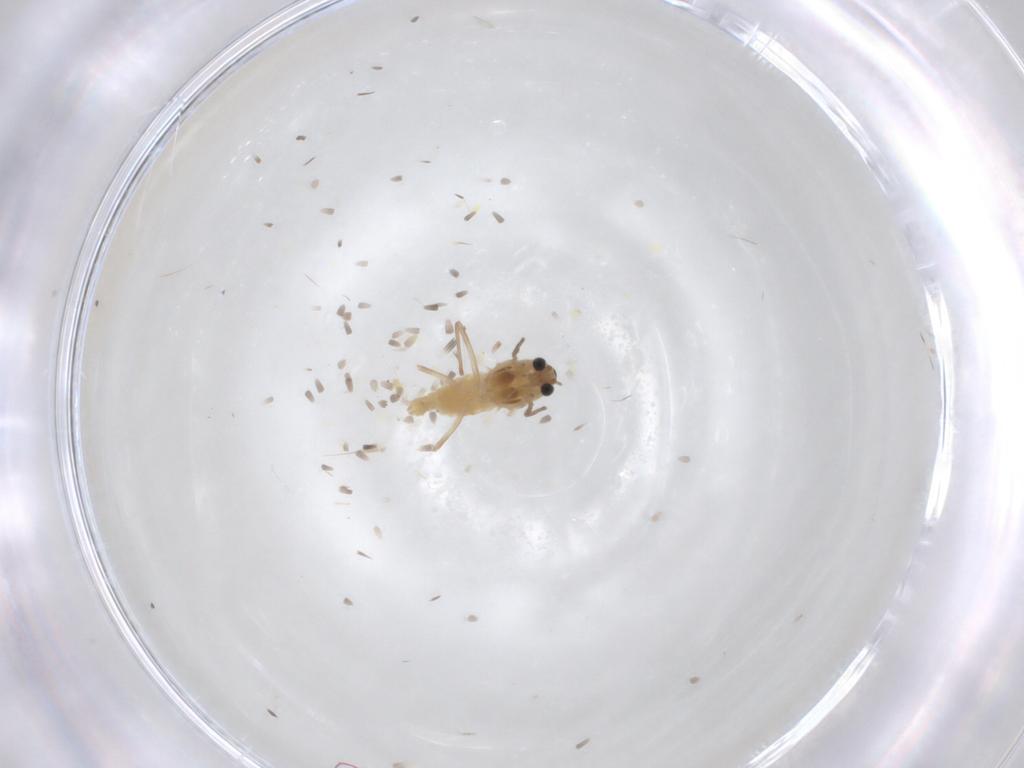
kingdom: Animalia
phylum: Arthropoda
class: Insecta
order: Diptera
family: Chironomidae
